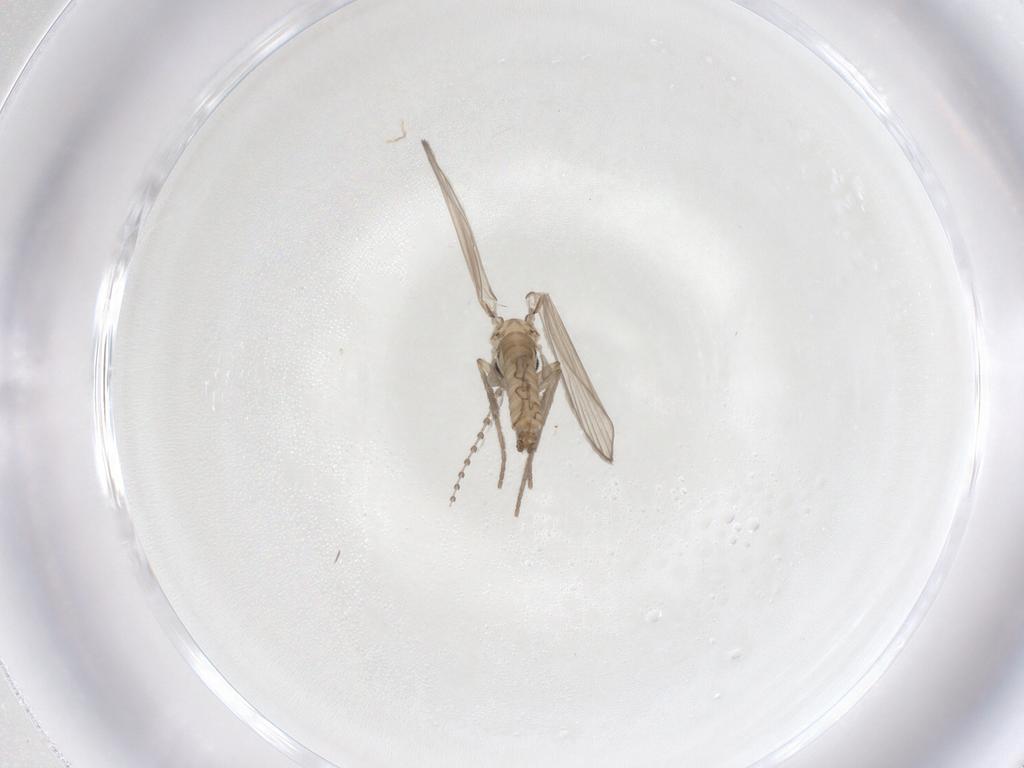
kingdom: Animalia
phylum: Arthropoda
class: Insecta
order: Diptera
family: Psychodidae
